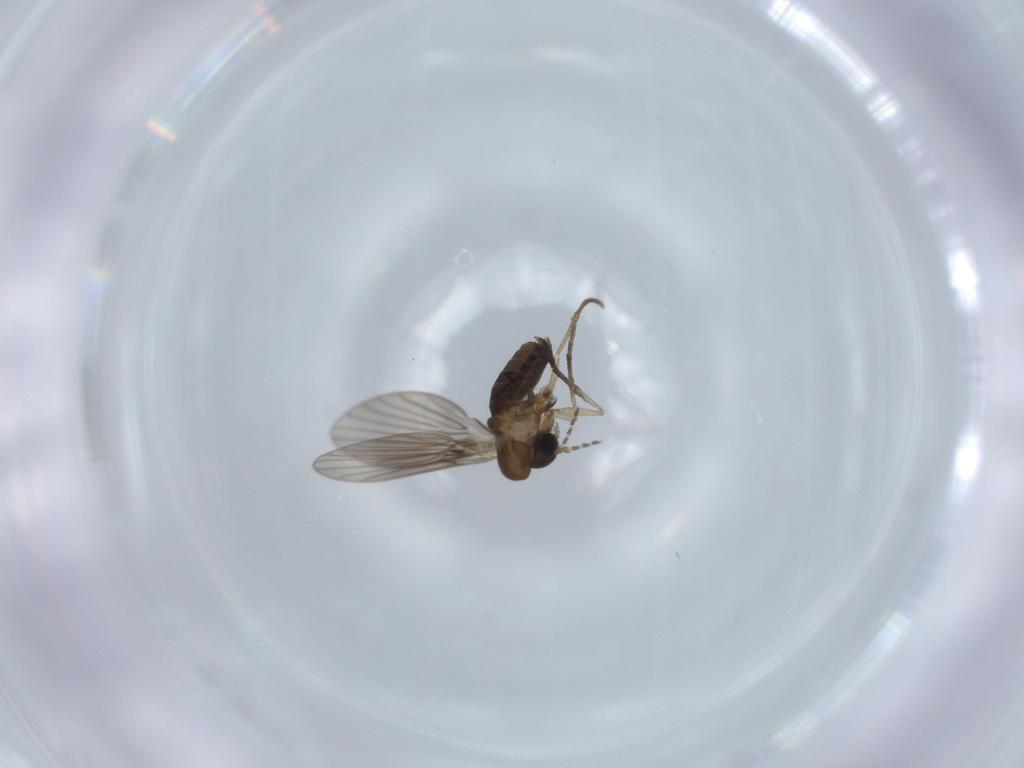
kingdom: Animalia
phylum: Arthropoda
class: Insecta
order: Diptera
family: Psychodidae
